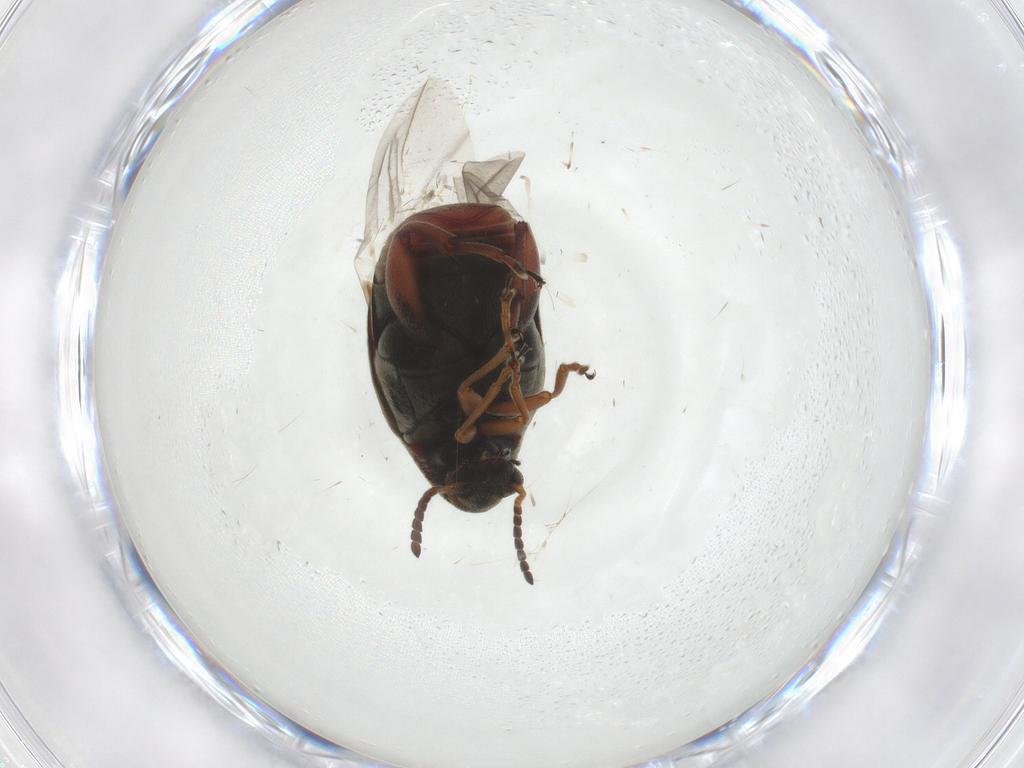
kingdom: Animalia
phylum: Arthropoda
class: Insecta
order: Coleoptera
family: Chrysomelidae
